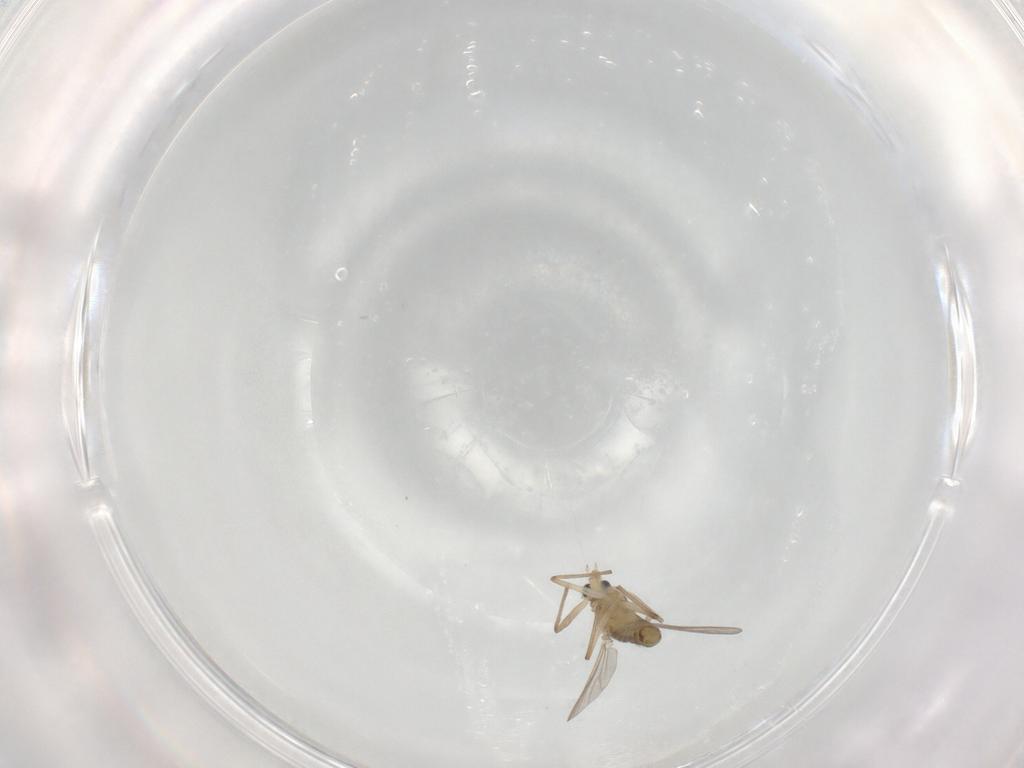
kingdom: Animalia
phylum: Arthropoda
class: Insecta
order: Diptera
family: Chironomidae
